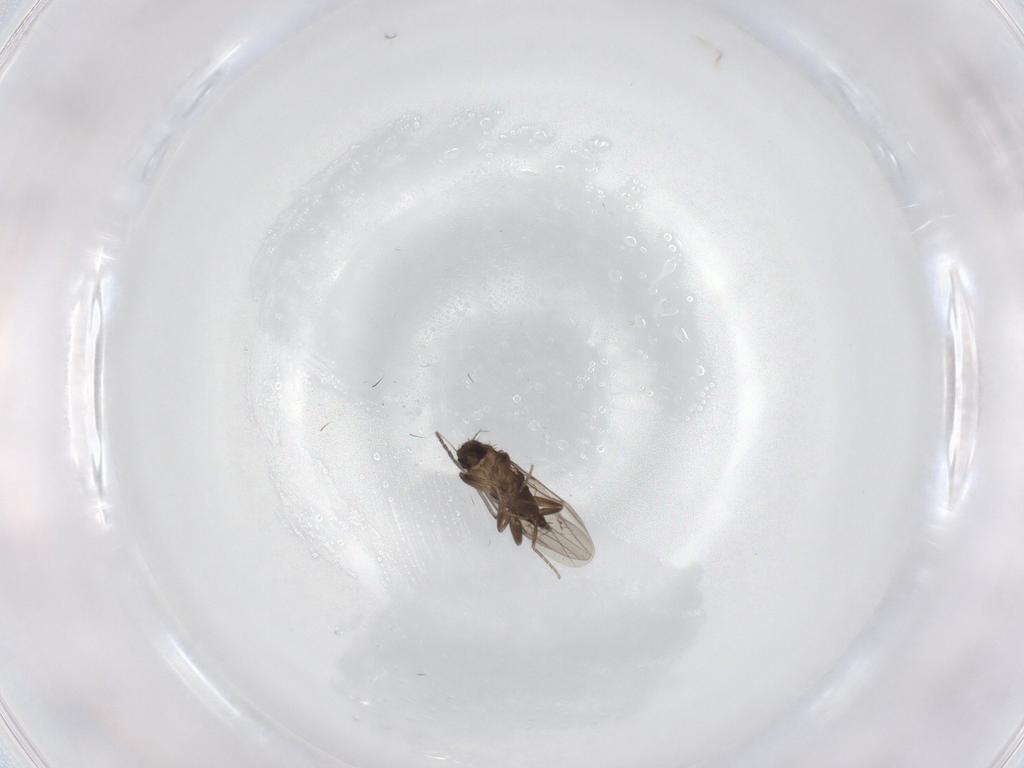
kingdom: Animalia
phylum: Arthropoda
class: Insecta
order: Diptera
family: Sciaridae
